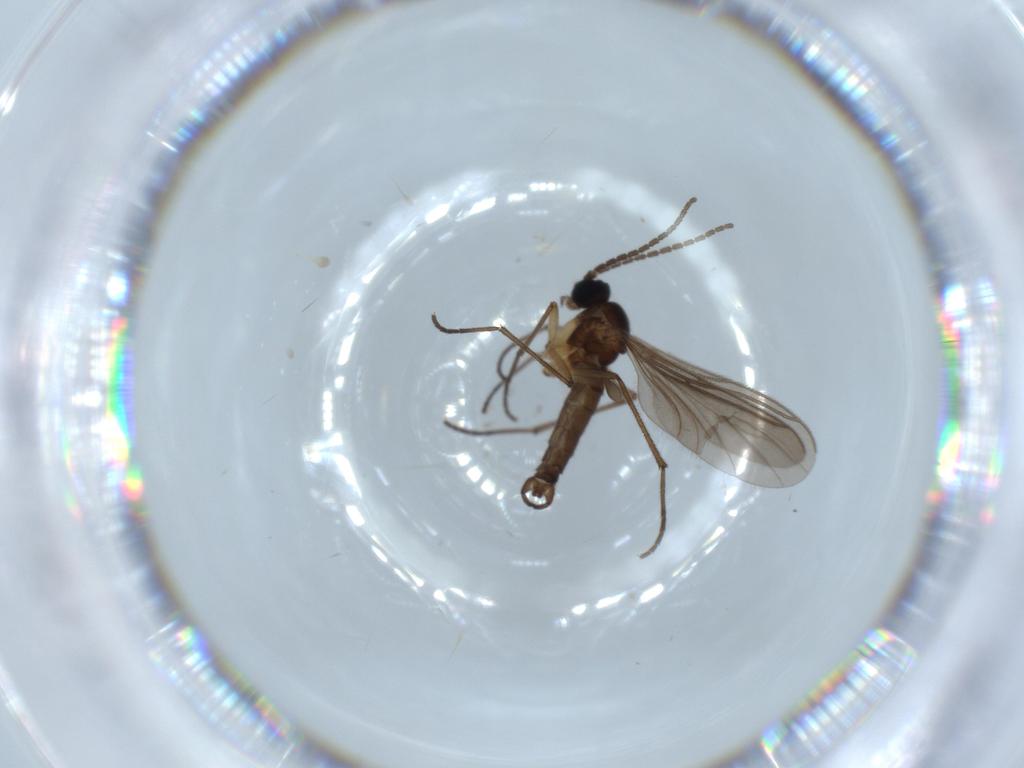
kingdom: Animalia
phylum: Arthropoda
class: Insecta
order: Diptera
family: Sciaridae
